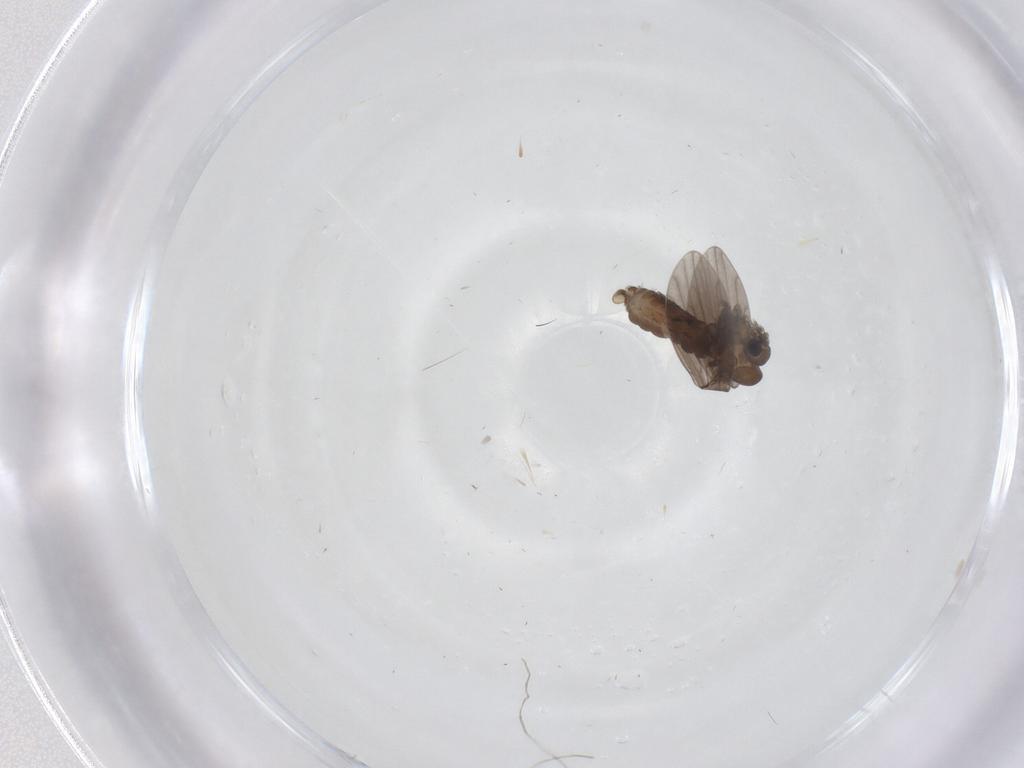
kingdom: Animalia
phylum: Arthropoda
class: Insecta
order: Diptera
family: Psychodidae
